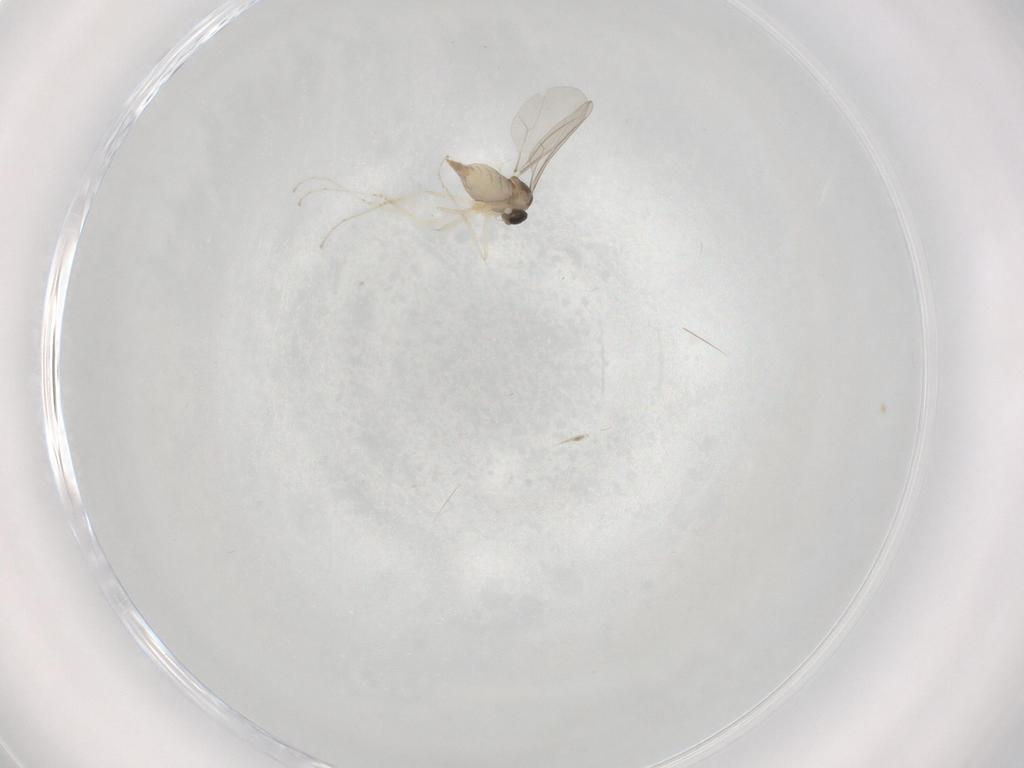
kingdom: Animalia
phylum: Arthropoda
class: Insecta
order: Diptera
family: Cecidomyiidae
